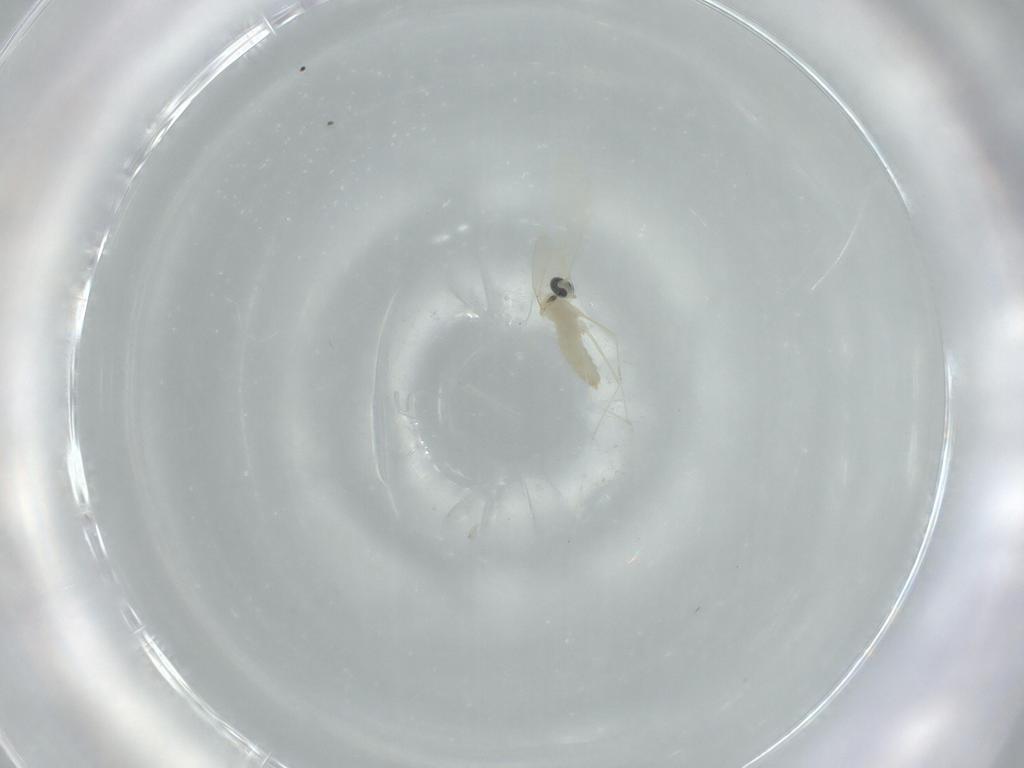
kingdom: Animalia
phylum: Arthropoda
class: Insecta
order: Diptera
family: Cecidomyiidae
